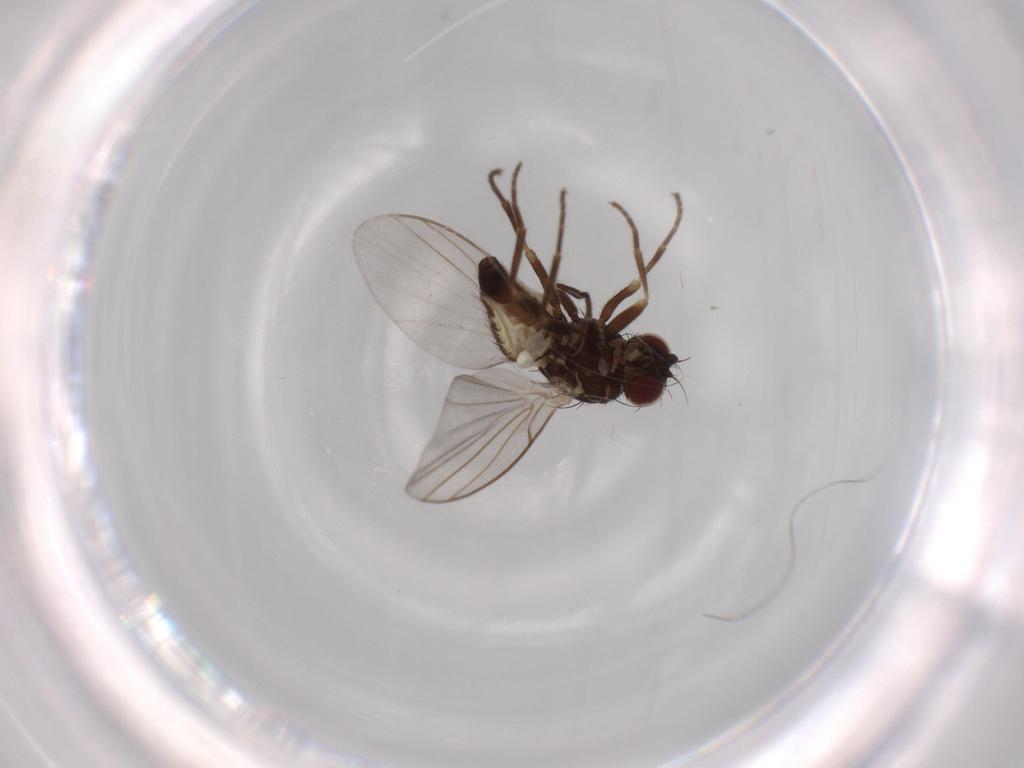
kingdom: Animalia
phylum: Arthropoda
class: Insecta
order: Diptera
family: Agromyzidae
